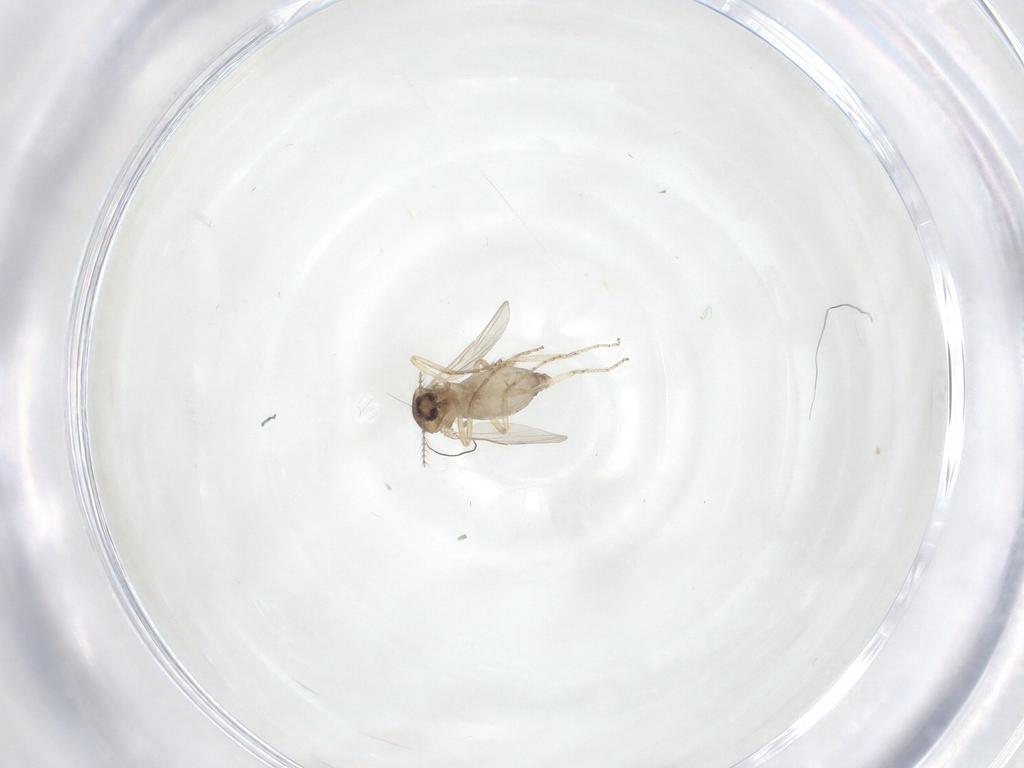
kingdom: Animalia
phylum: Arthropoda
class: Insecta
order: Diptera
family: Ceratopogonidae
